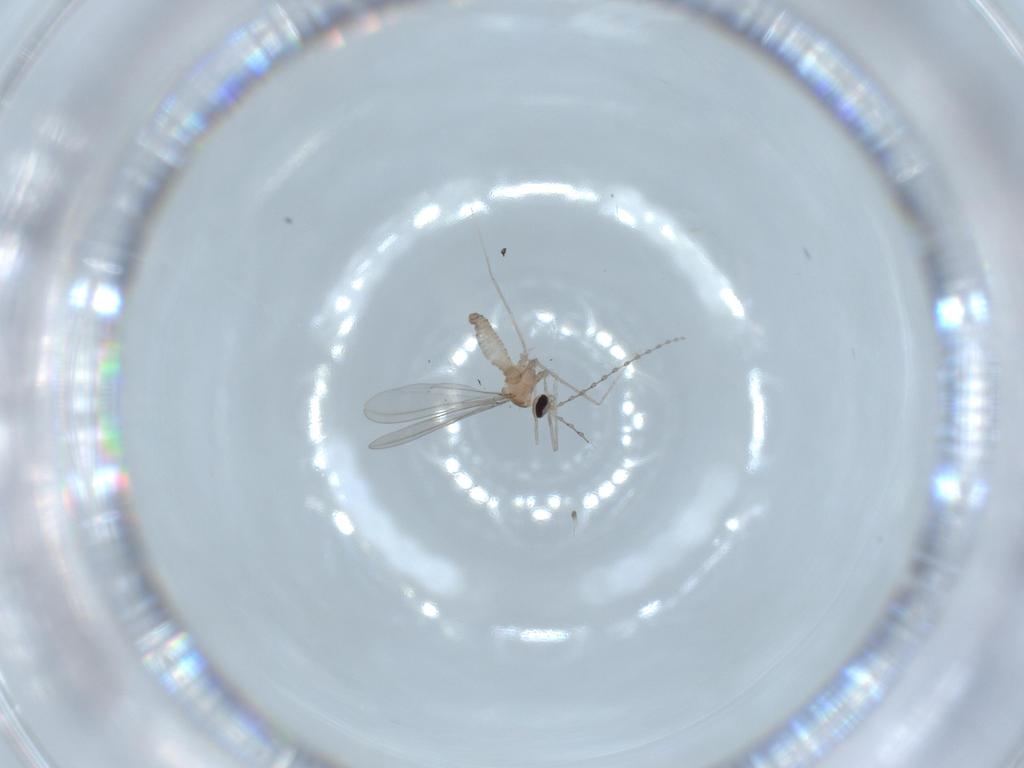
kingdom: Animalia
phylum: Arthropoda
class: Insecta
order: Diptera
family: Cecidomyiidae
